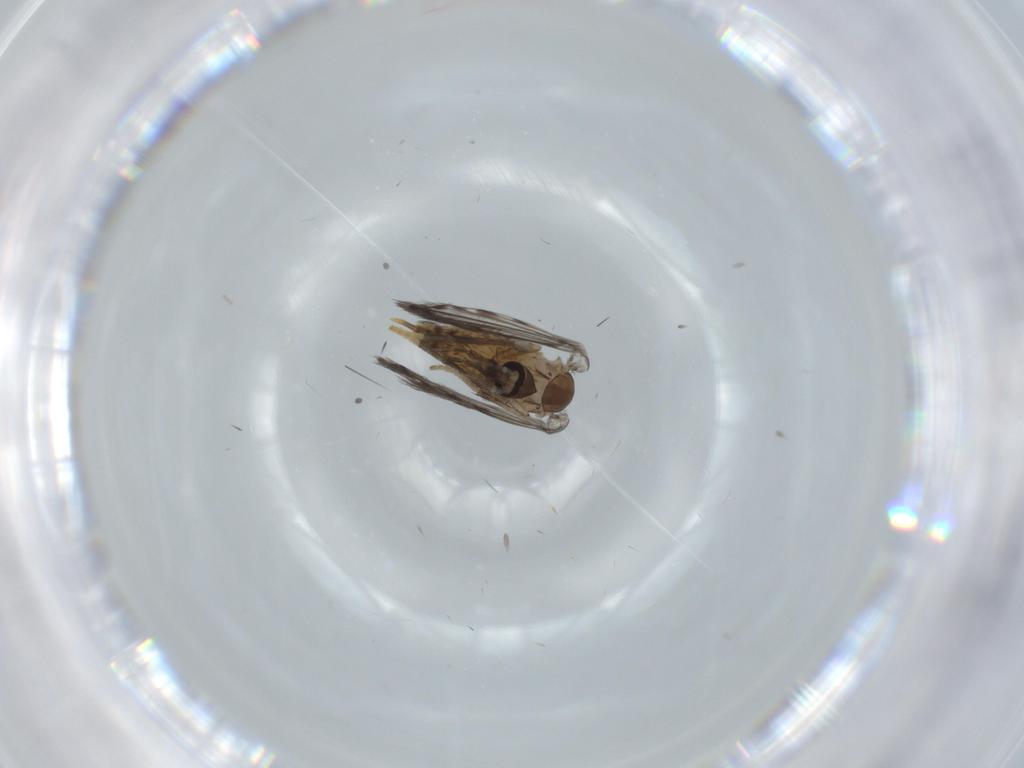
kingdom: Animalia
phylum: Arthropoda
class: Insecta
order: Diptera
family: Psychodidae
